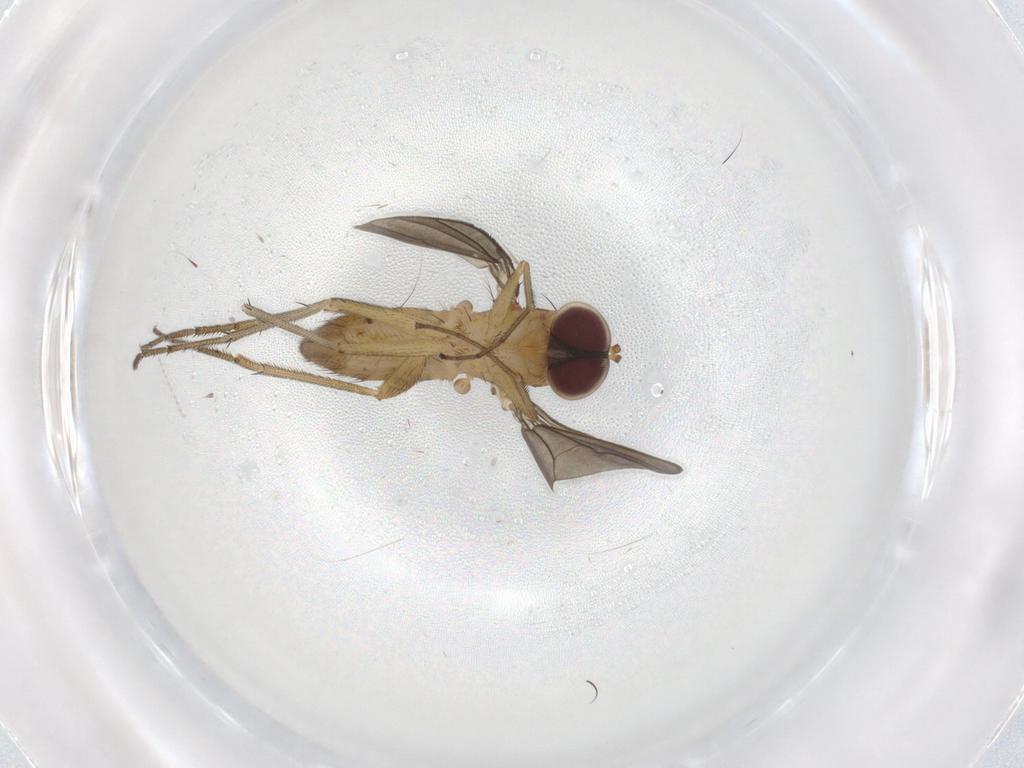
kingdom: Animalia
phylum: Arthropoda
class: Insecta
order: Diptera
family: Dolichopodidae
